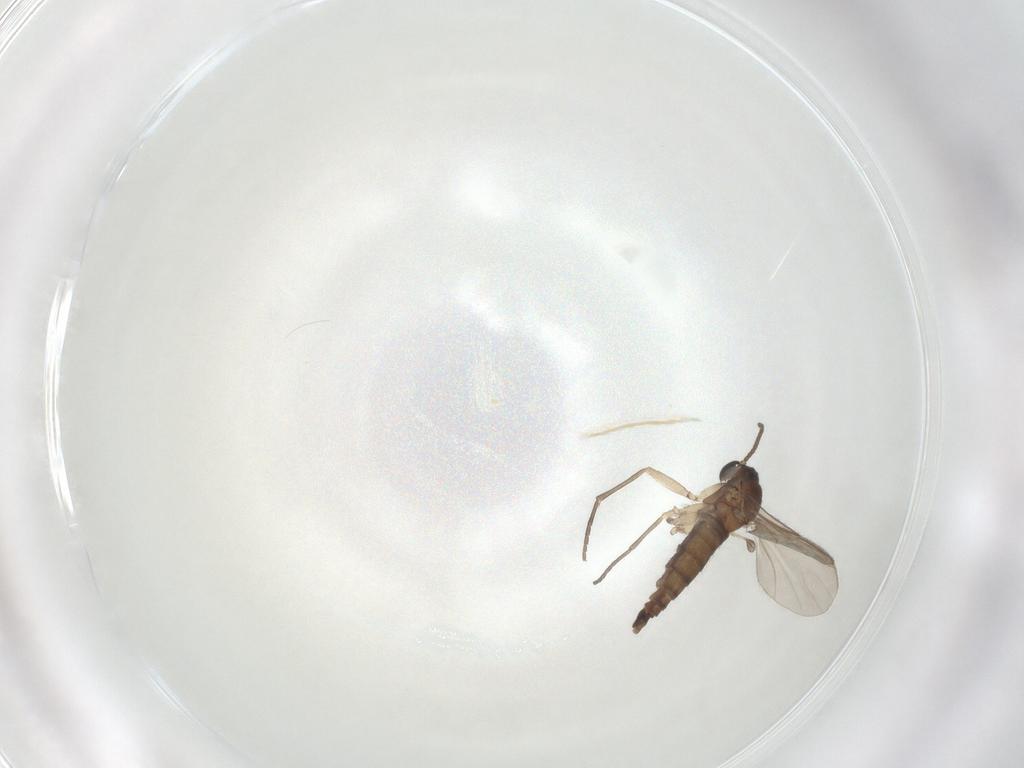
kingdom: Animalia
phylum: Arthropoda
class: Insecta
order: Diptera
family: Sciaridae
